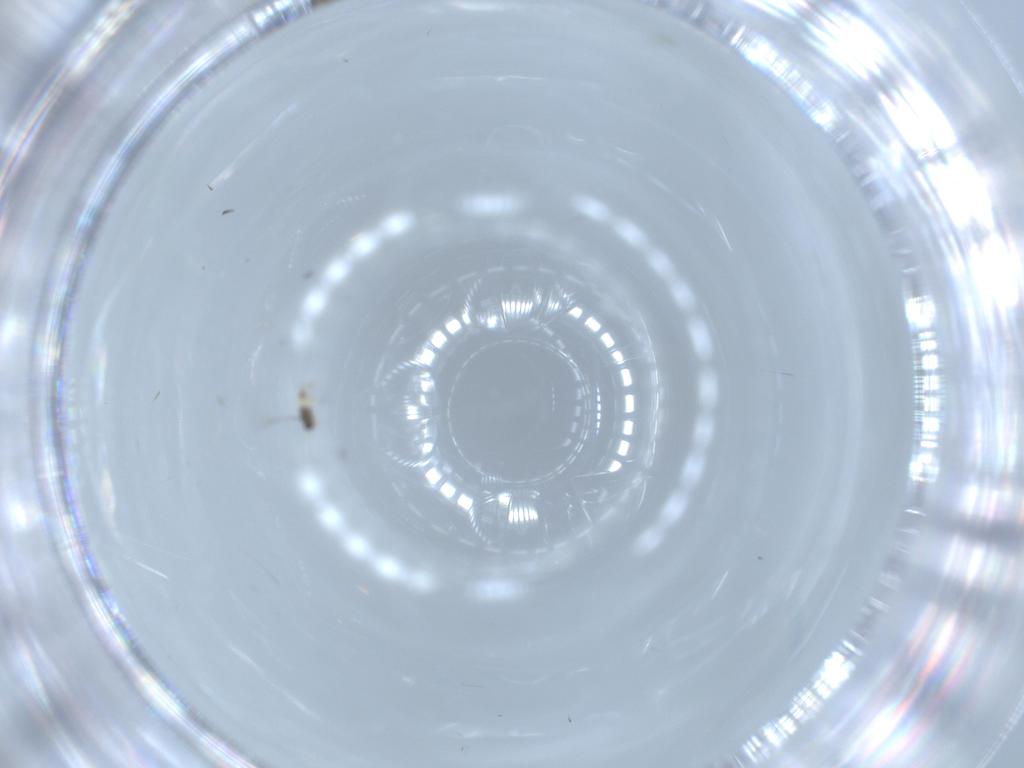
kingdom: Animalia
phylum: Arthropoda
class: Insecta
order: Hymenoptera
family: Mymaridae
